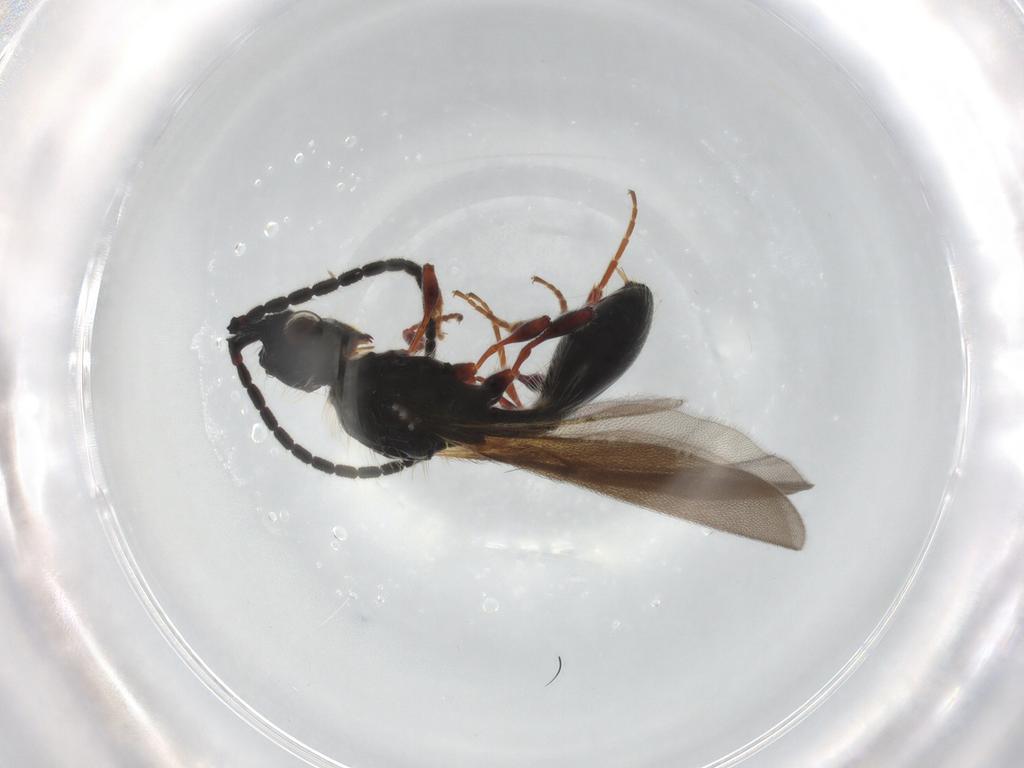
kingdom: Animalia
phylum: Arthropoda
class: Insecta
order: Hymenoptera
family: Diapriidae
